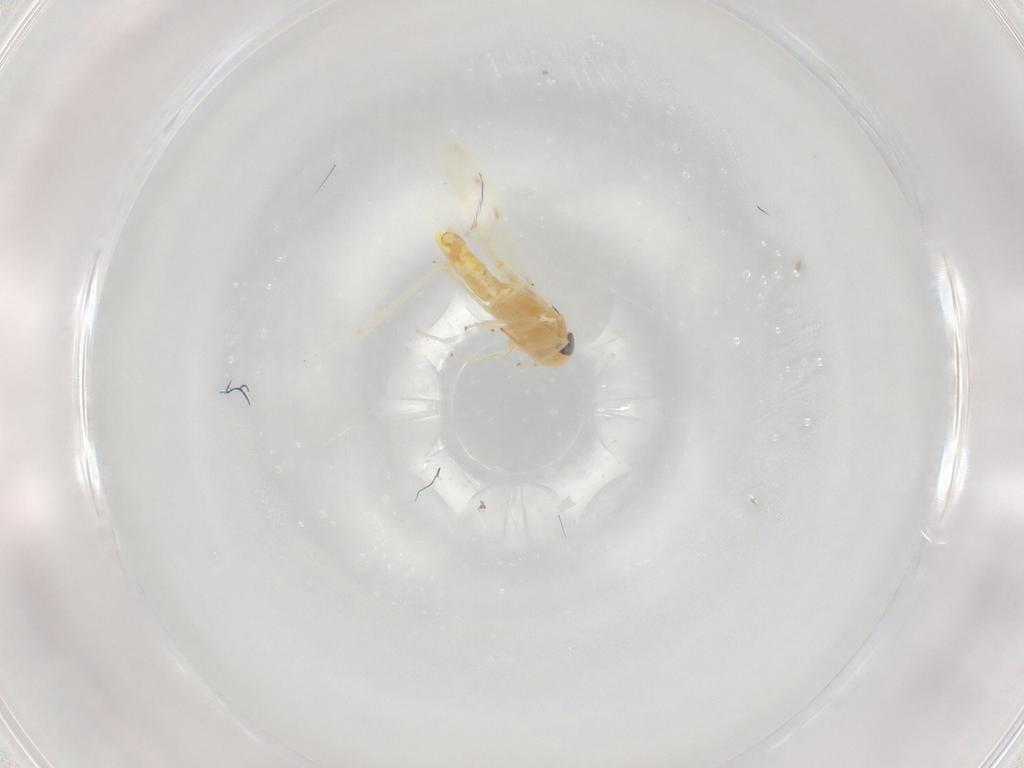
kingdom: Animalia
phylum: Arthropoda
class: Insecta
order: Hemiptera
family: Cicadellidae
